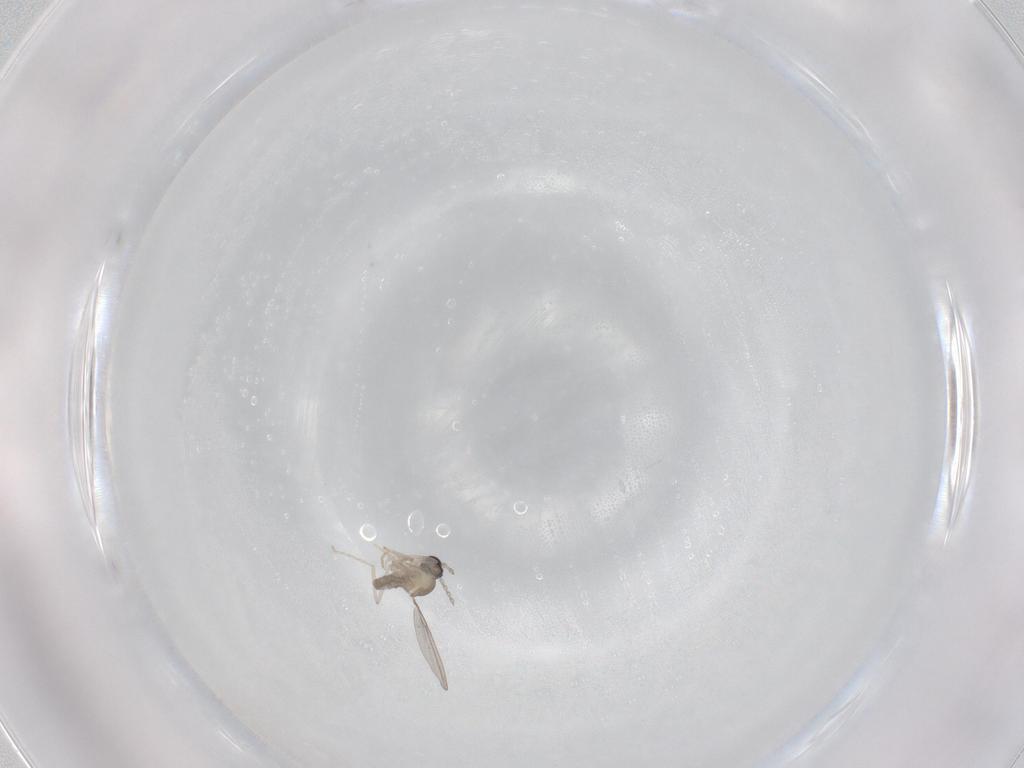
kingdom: Animalia
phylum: Arthropoda
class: Insecta
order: Diptera
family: Cecidomyiidae
